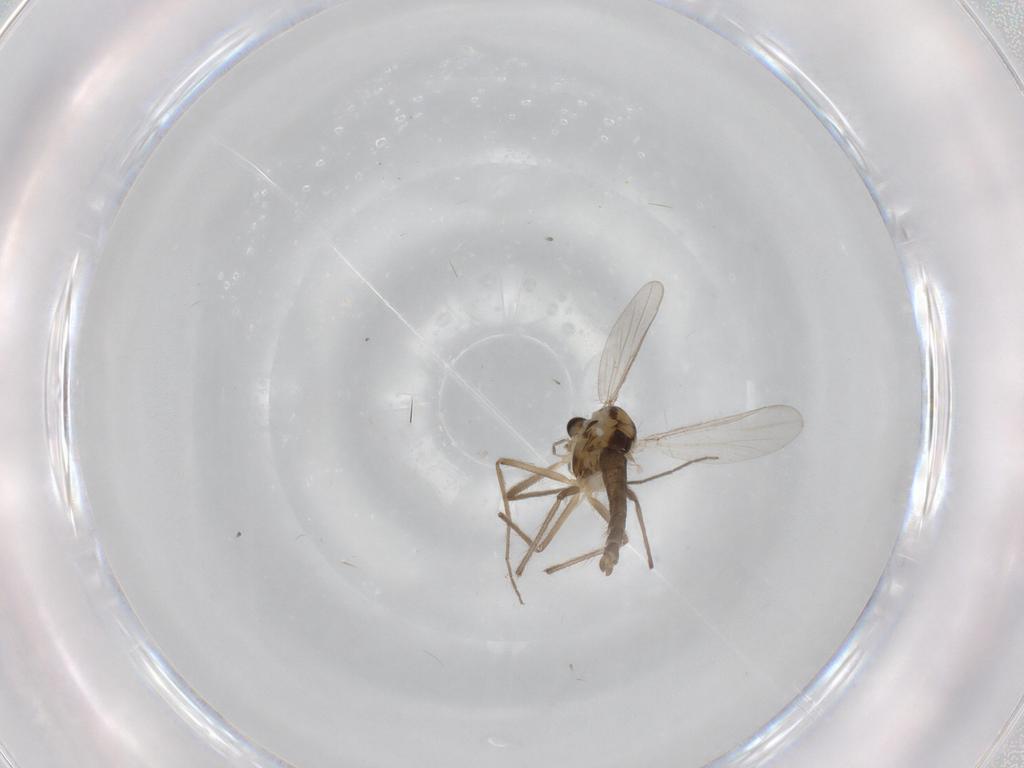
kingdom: Animalia
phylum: Arthropoda
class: Insecta
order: Diptera
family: Chironomidae
